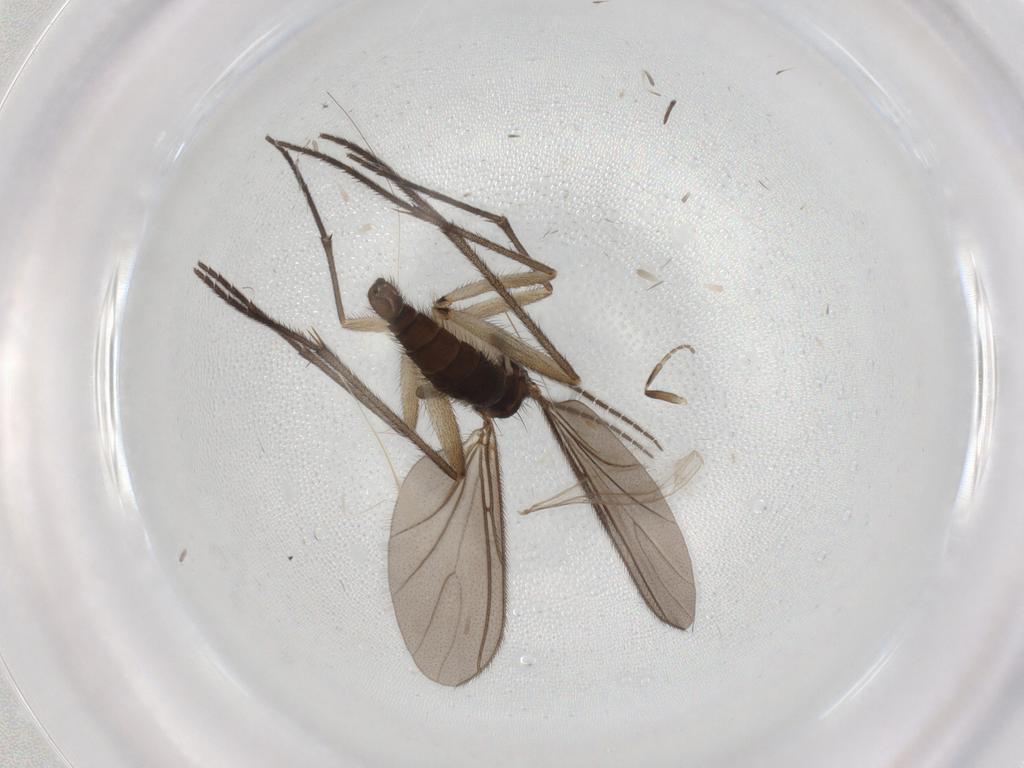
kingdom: Animalia
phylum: Arthropoda
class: Insecta
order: Diptera
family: Sciaridae
